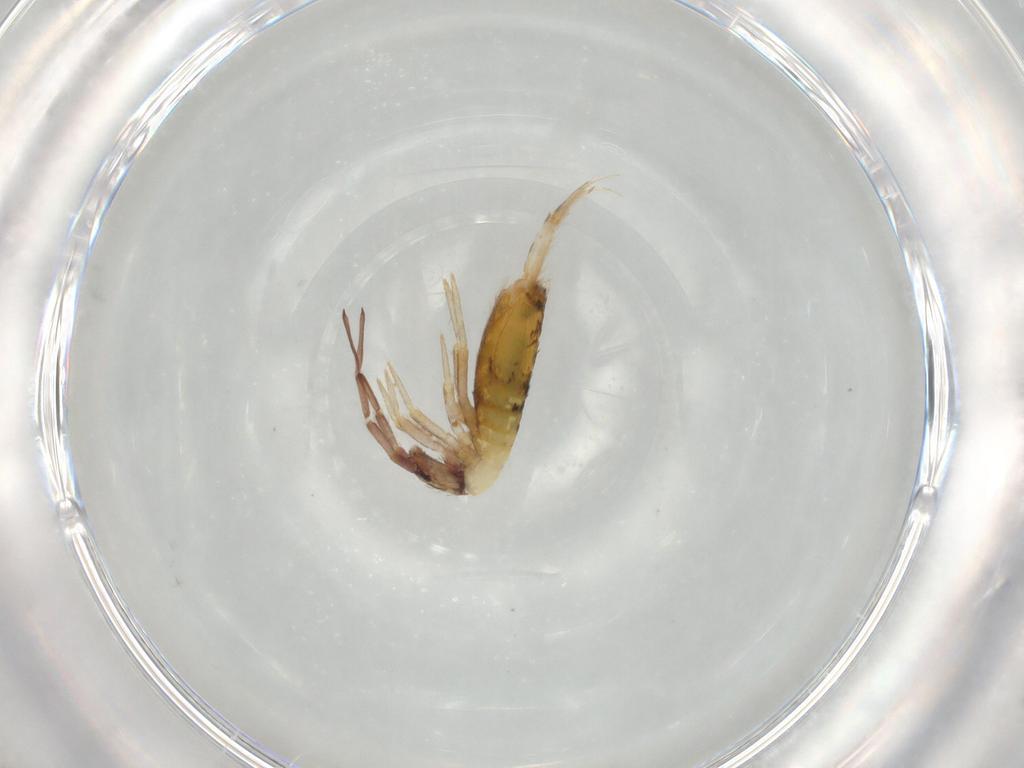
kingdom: Animalia
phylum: Arthropoda
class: Collembola
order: Entomobryomorpha
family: Entomobryidae
